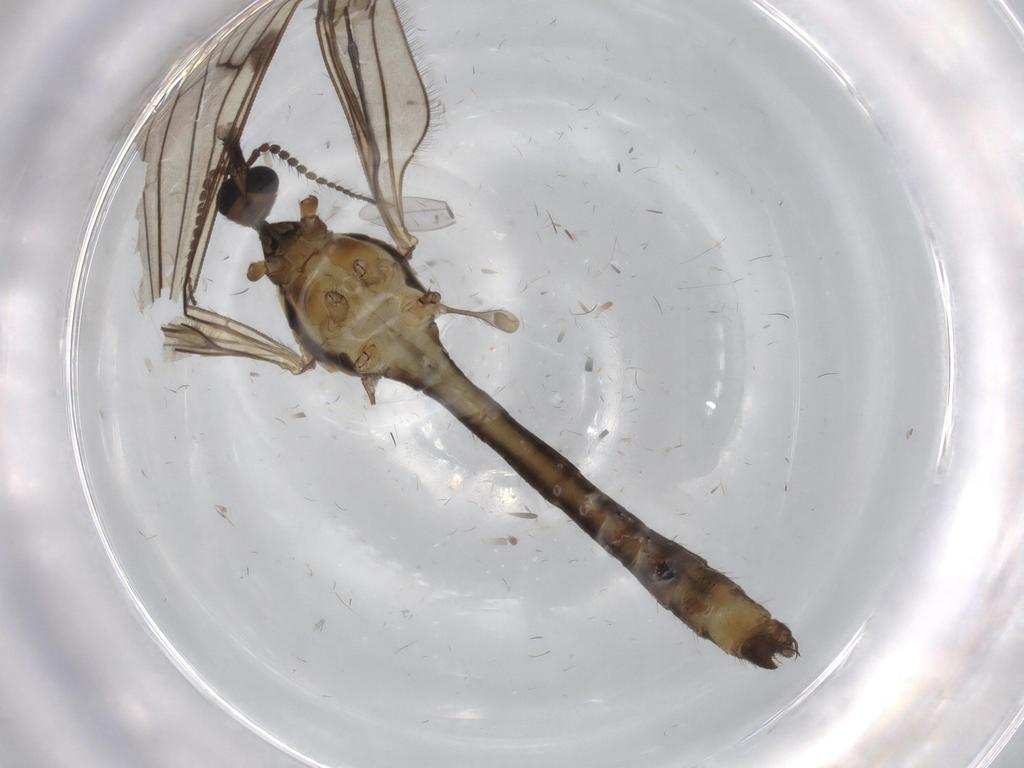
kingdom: Animalia
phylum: Arthropoda
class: Insecta
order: Diptera
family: Limoniidae
